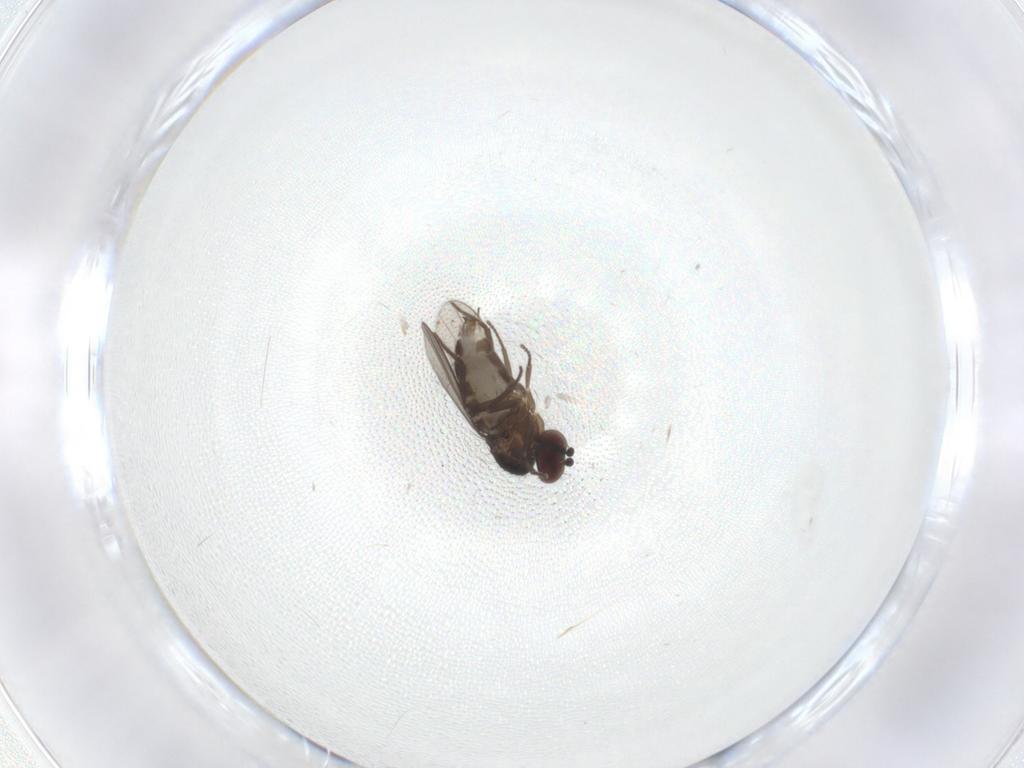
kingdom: Animalia
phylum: Arthropoda
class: Insecta
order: Diptera
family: Dolichopodidae
